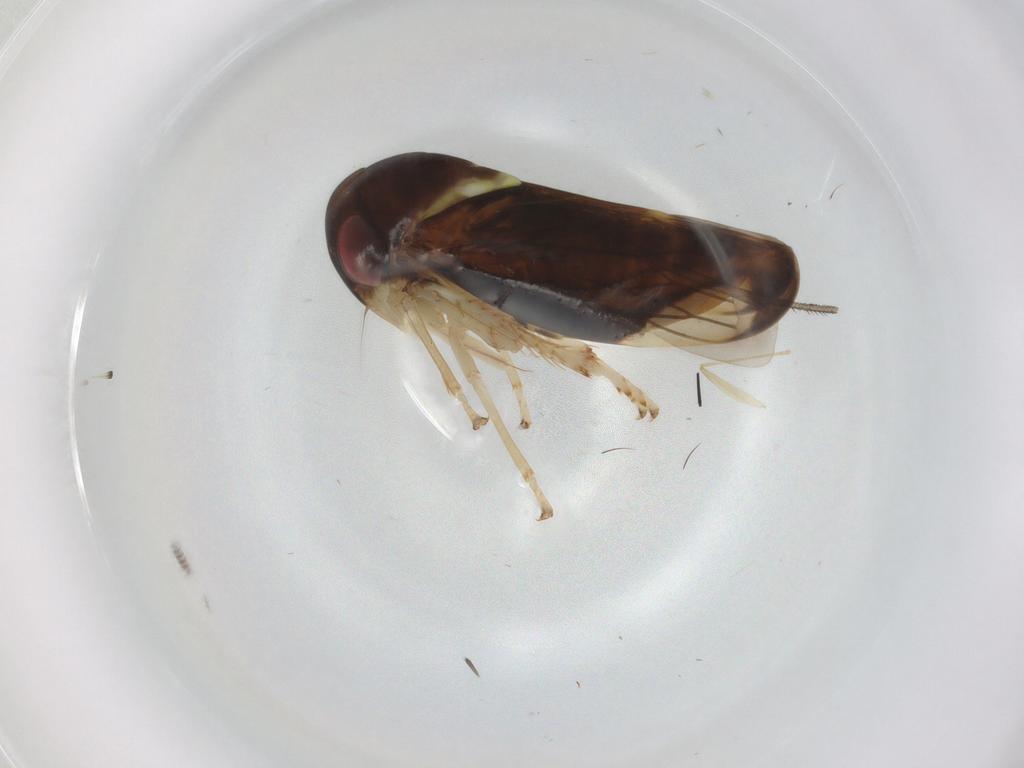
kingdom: Animalia
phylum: Arthropoda
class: Insecta
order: Hemiptera
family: Cicadellidae
